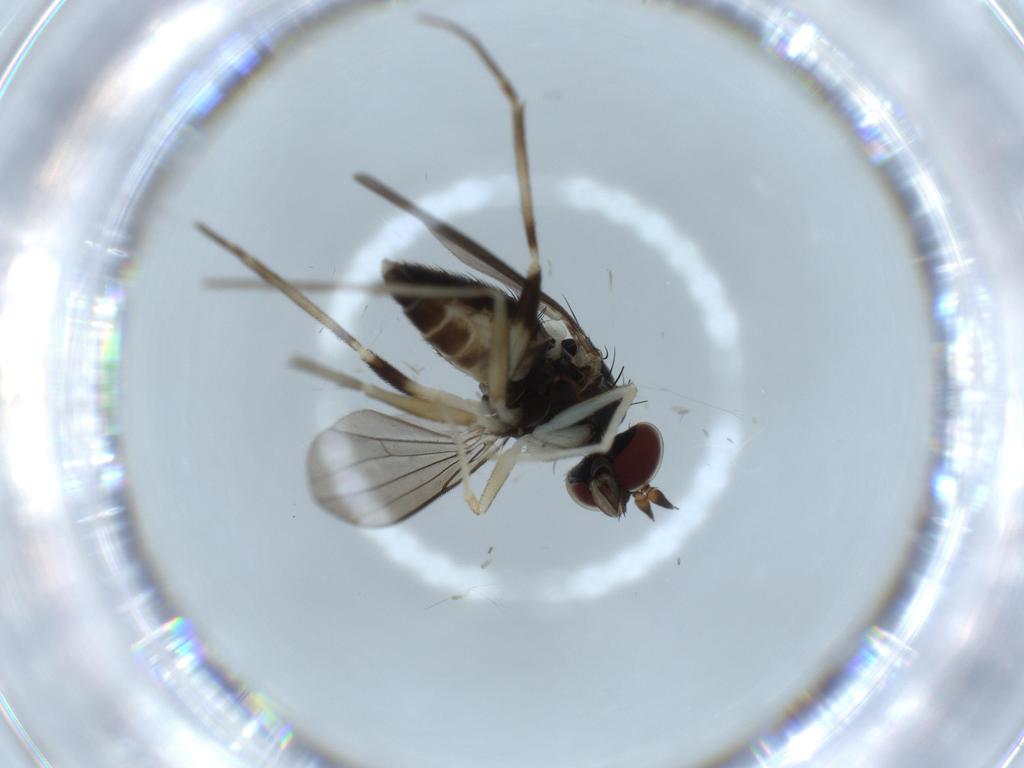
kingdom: Animalia
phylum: Arthropoda
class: Insecta
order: Diptera
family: Dolichopodidae
